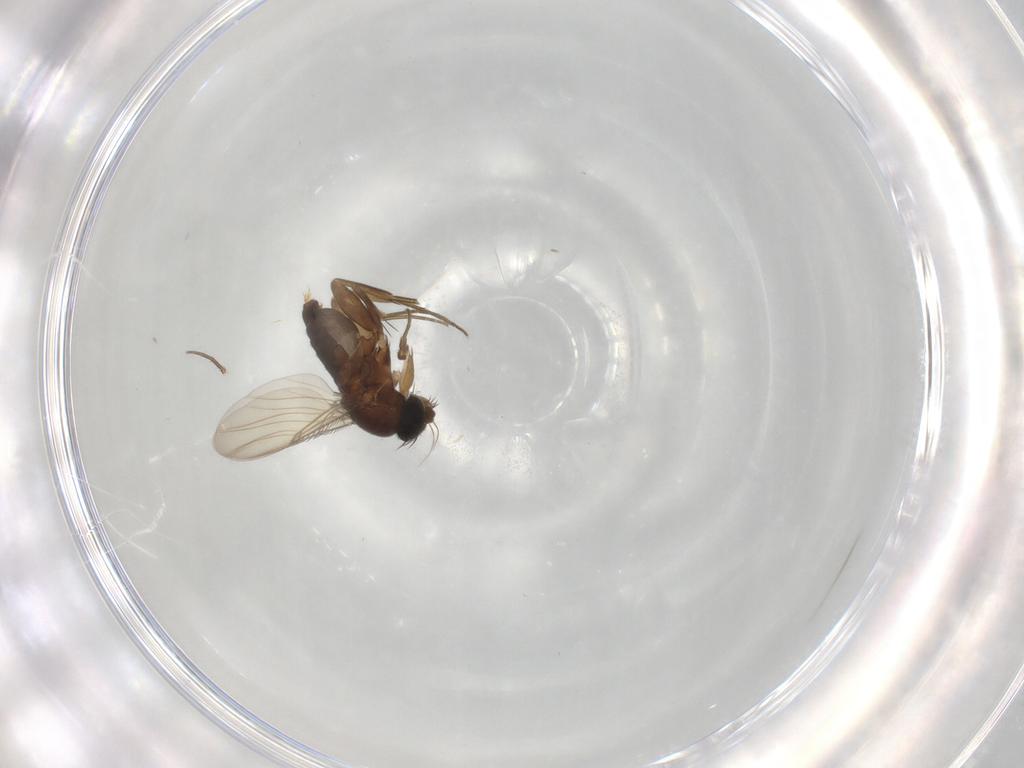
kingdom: Animalia
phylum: Arthropoda
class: Insecta
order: Diptera
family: Phoridae
